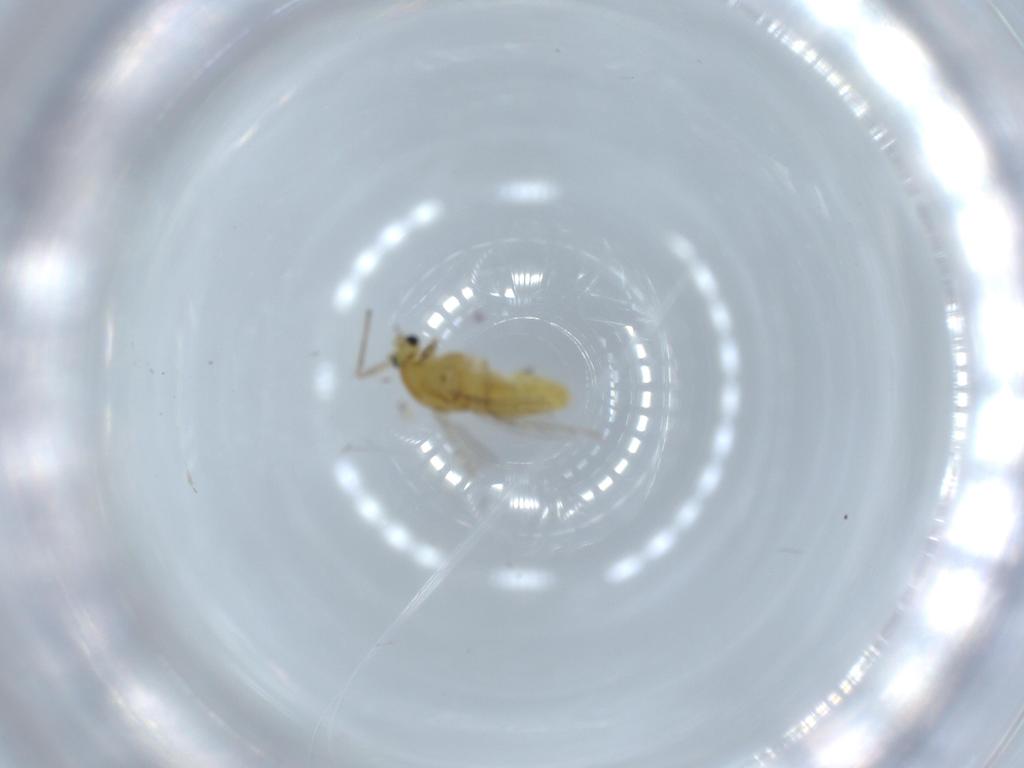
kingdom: Animalia
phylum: Arthropoda
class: Insecta
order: Diptera
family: Chironomidae
